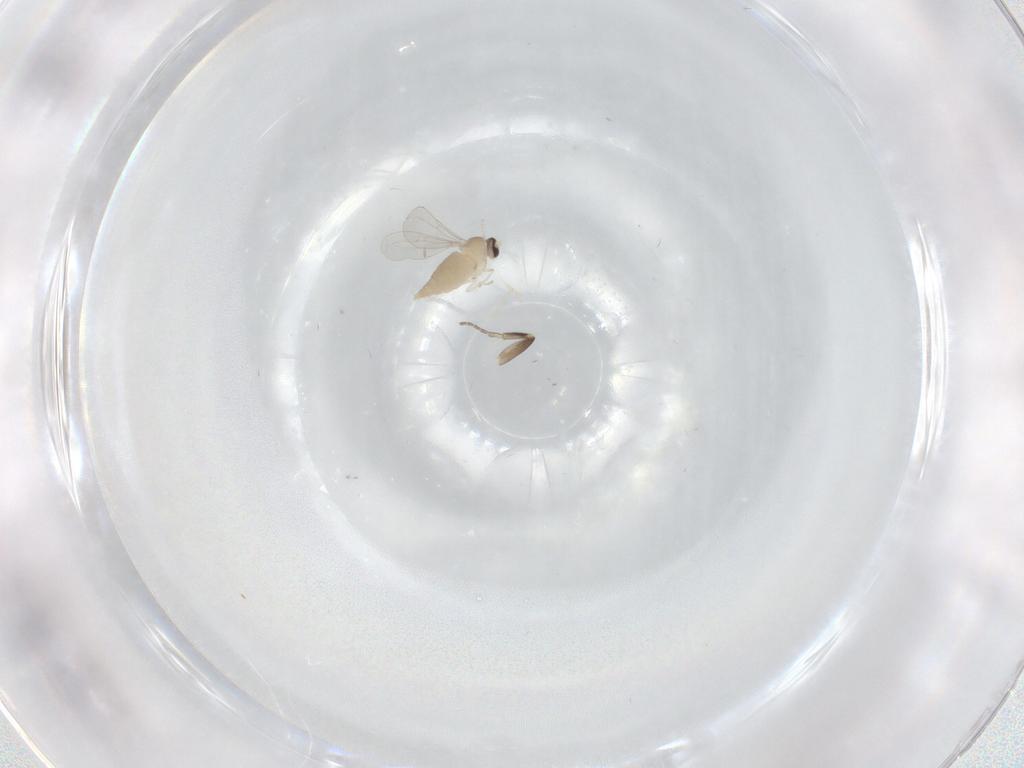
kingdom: Animalia
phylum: Arthropoda
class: Insecta
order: Diptera
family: Cecidomyiidae
